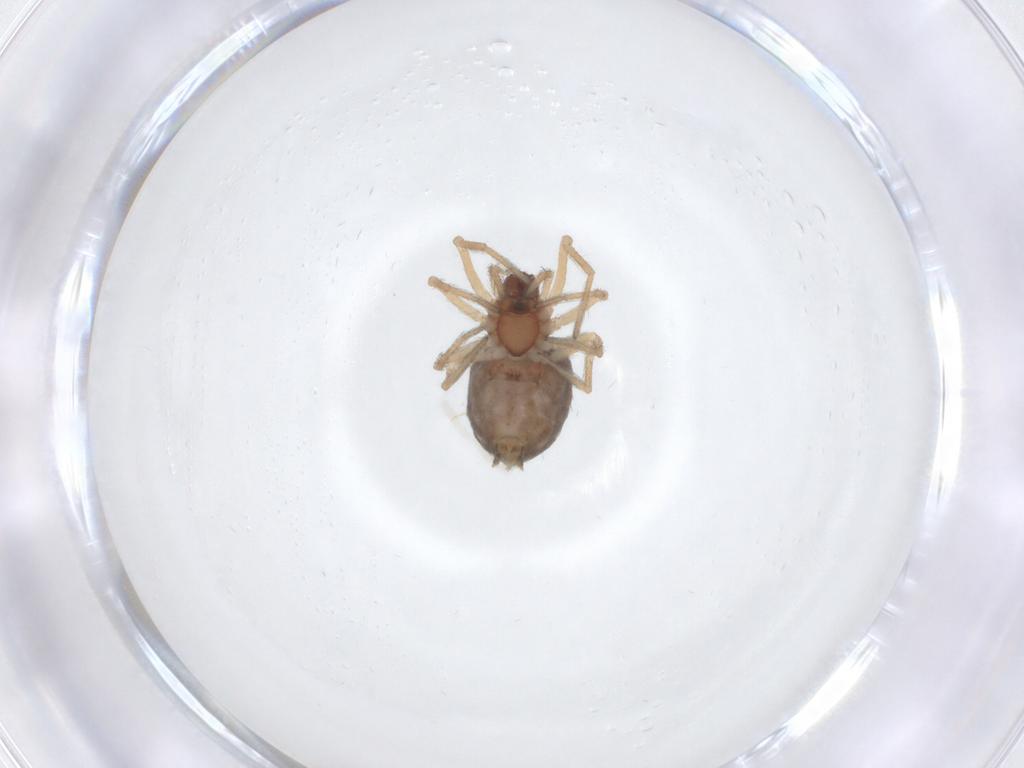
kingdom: Animalia
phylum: Arthropoda
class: Arachnida
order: Araneae
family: Dictynidae
